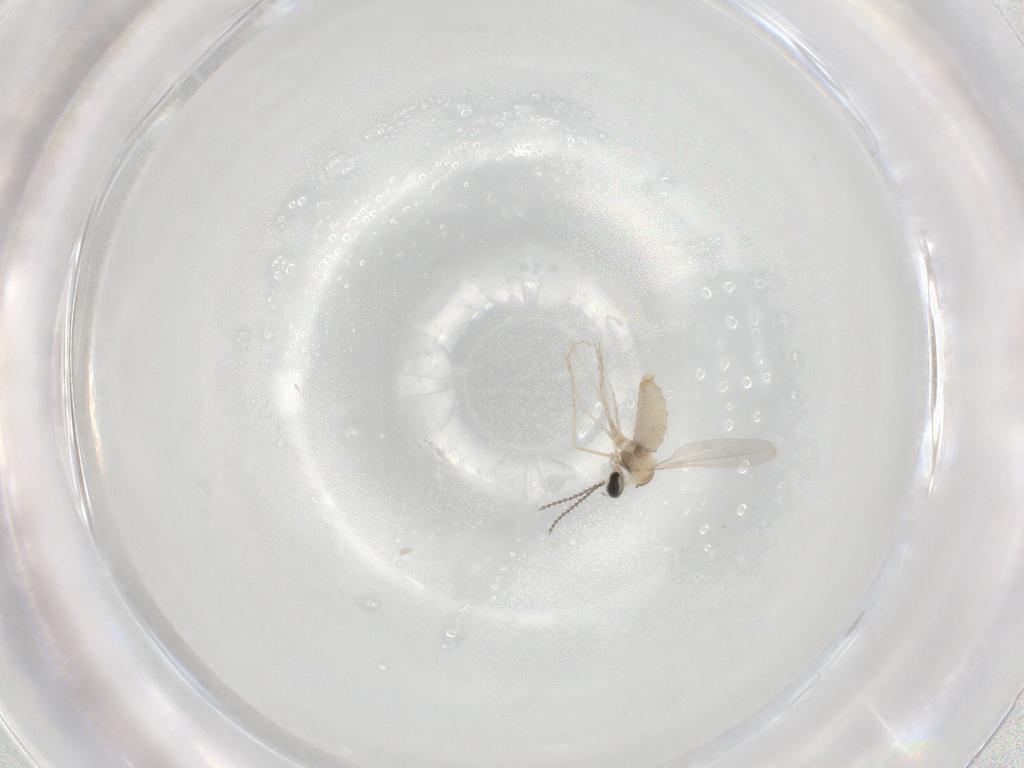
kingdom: Animalia
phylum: Arthropoda
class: Insecta
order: Diptera
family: Cecidomyiidae
